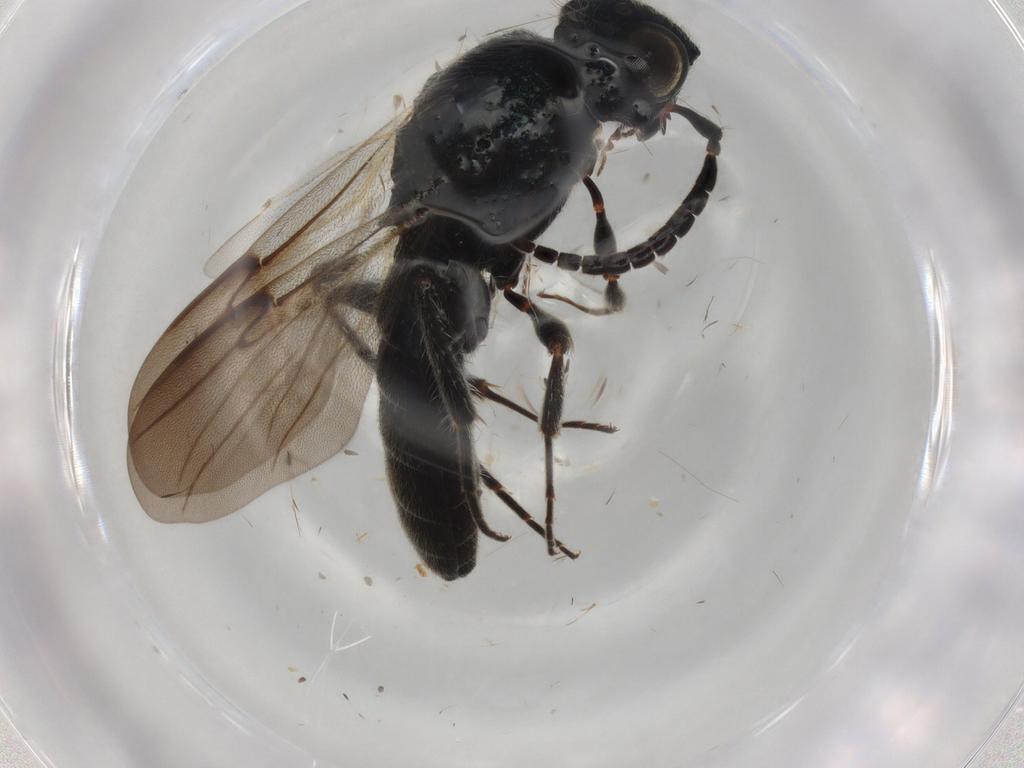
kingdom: Animalia
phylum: Arthropoda
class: Insecta
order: Hymenoptera
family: Scelionidae
